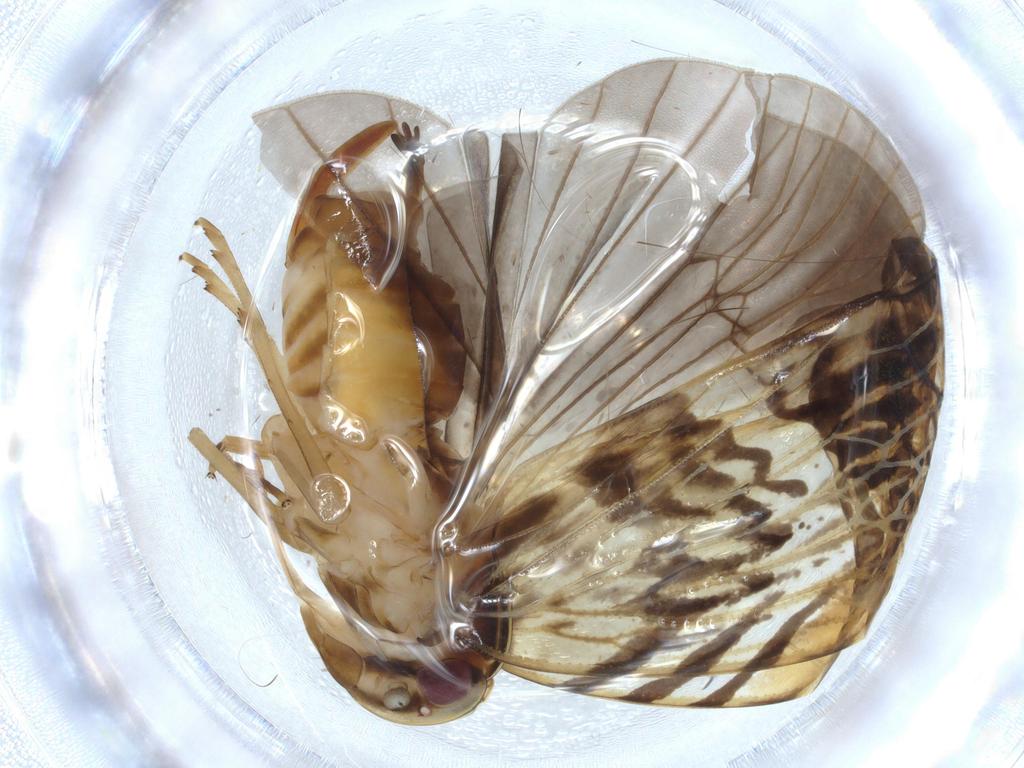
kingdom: Animalia
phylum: Arthropoda
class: Insecta
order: Hemiptera
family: Cixiidae
